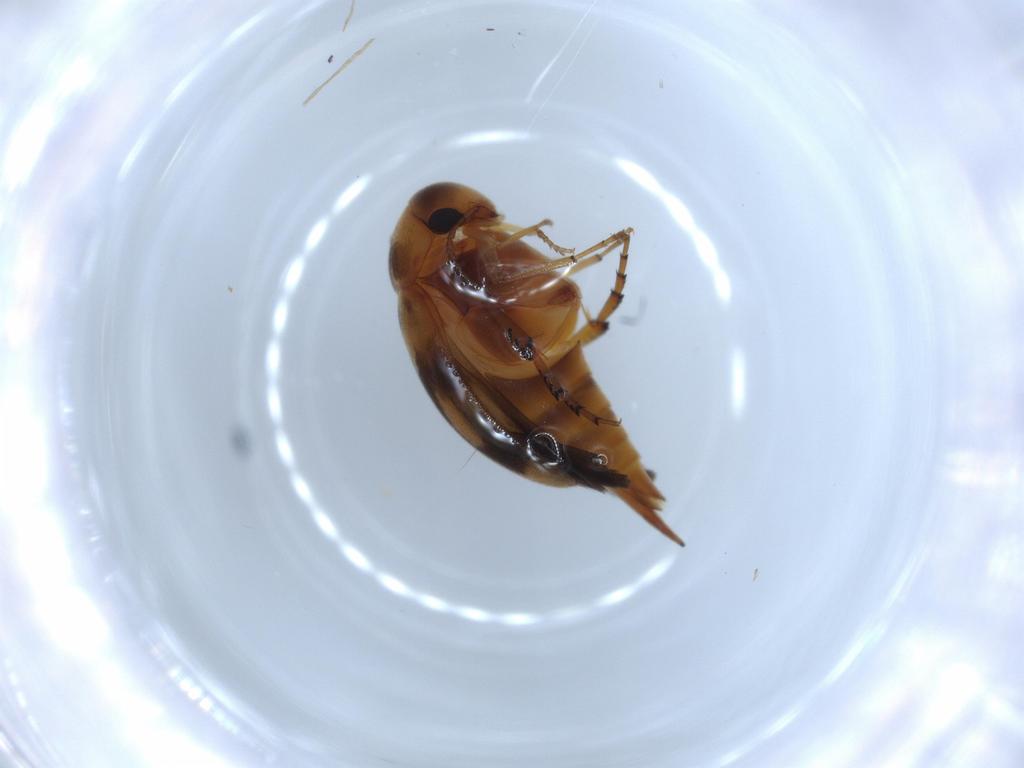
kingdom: Animalia
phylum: Arthropoda
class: Insecta
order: Coleoptera
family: Mordellidae
